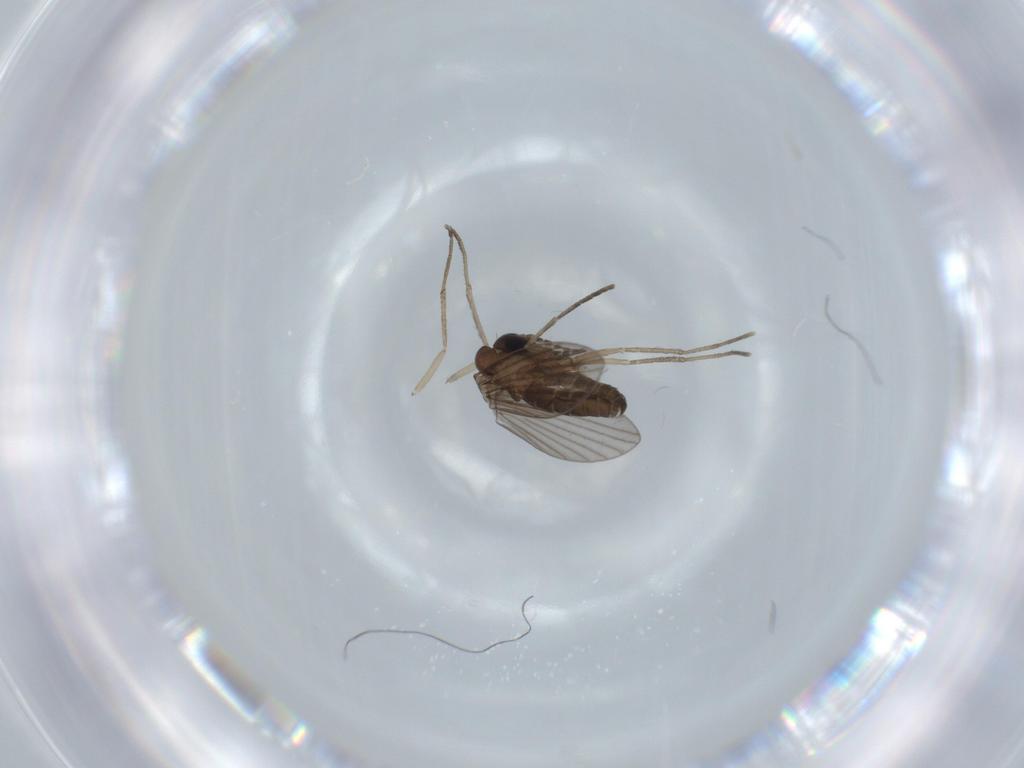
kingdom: Animalia
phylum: Arthropoda
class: Insecta
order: Diptera
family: Psychodidae
